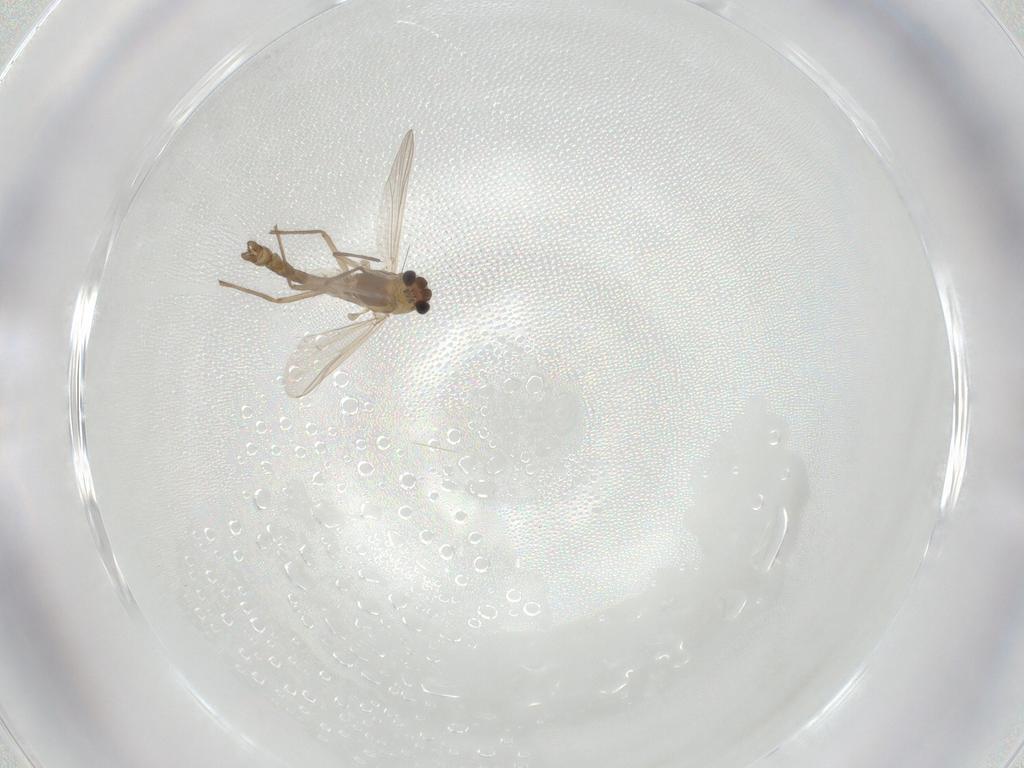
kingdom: Animalia
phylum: Arthropoda
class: Insecta
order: Diptera
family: Chironomidae
